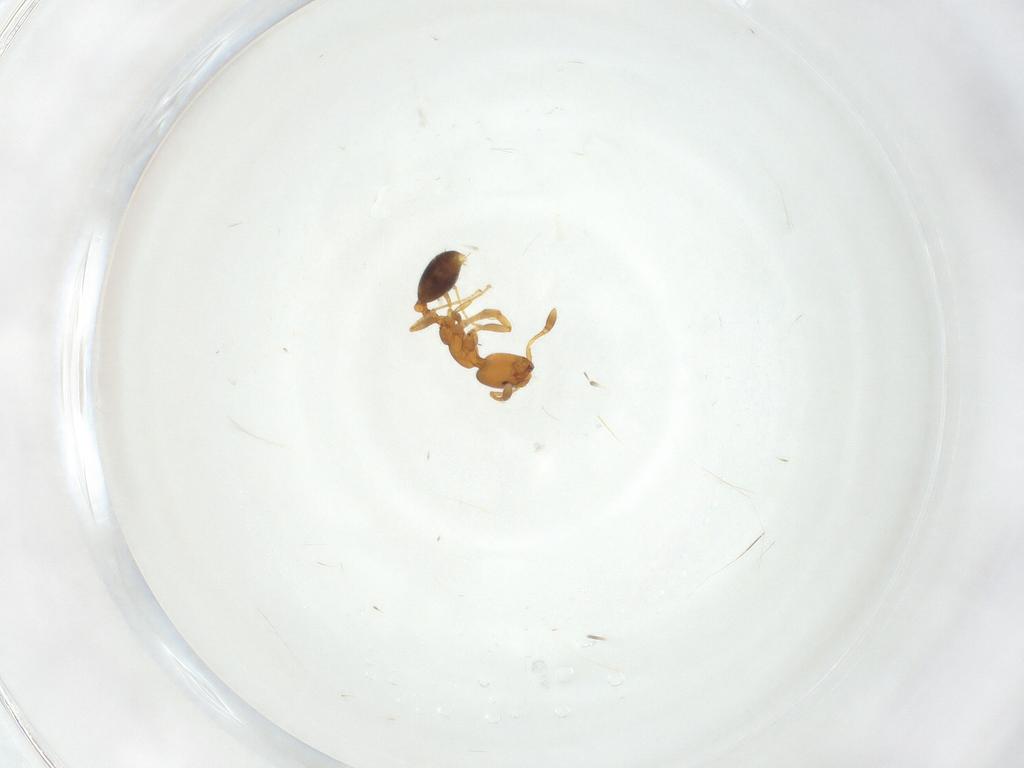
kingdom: Animalia
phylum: Arthropoda
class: Insecta
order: Hymenoptera
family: Formicidae
